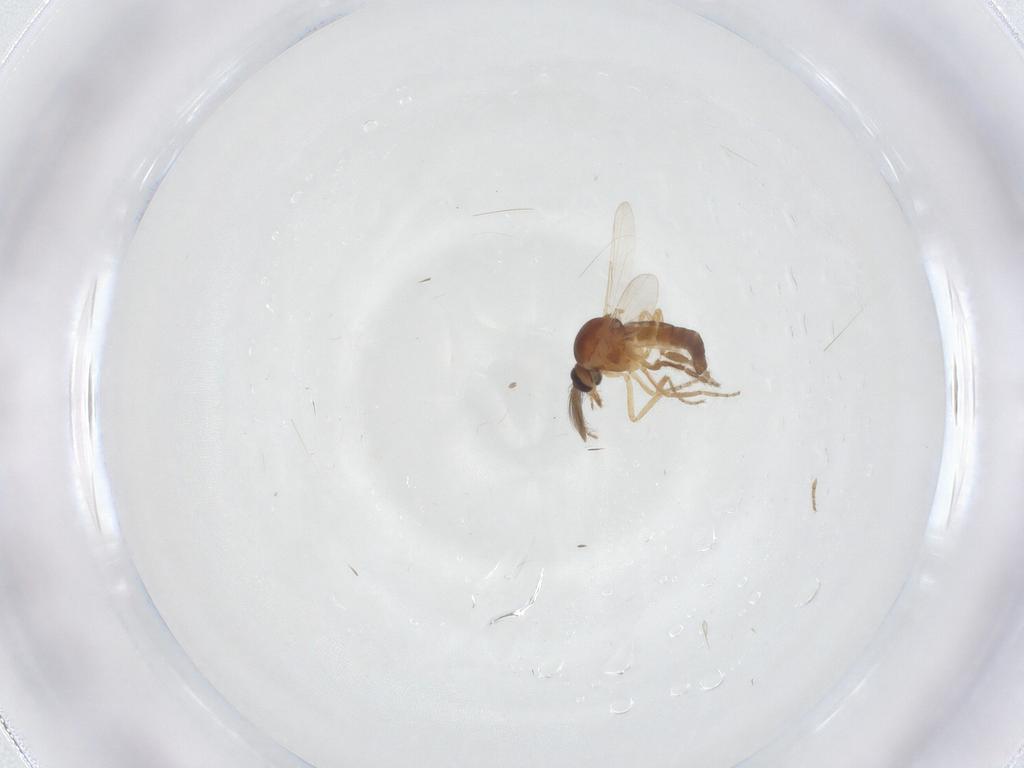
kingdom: Animalia
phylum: Arthropoda
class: Insecta
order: Diptera
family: Ceratopogonidae
